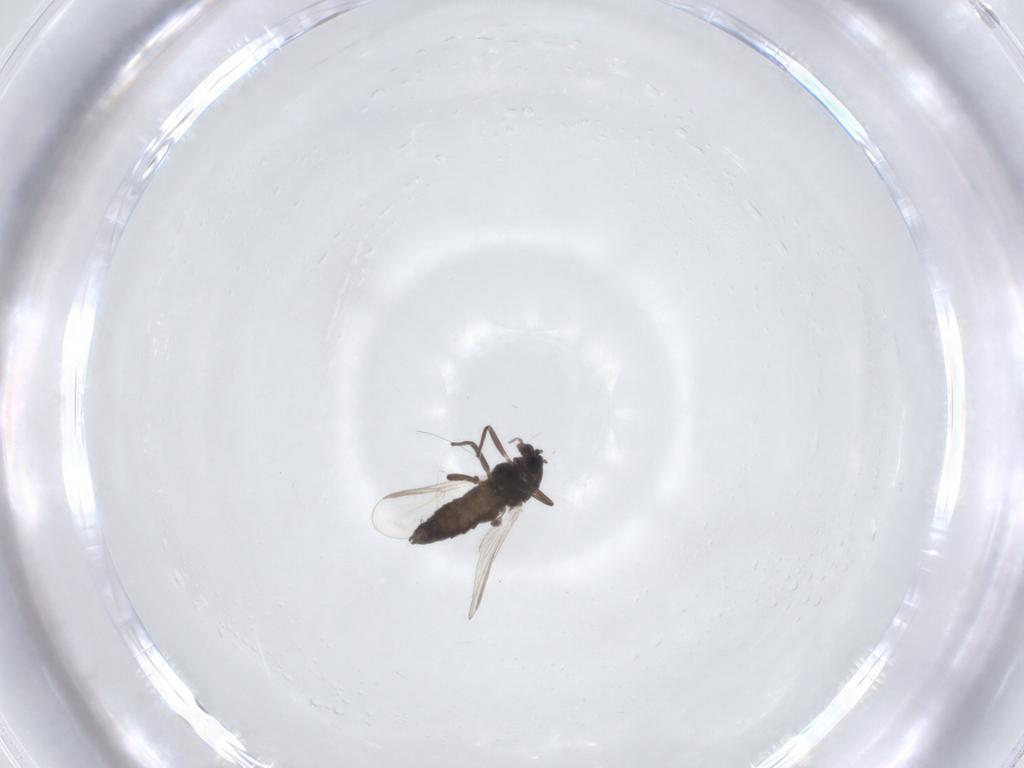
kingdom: Animalia
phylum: Arthropoda
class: Insecta
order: Diptera
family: Chironomidae
